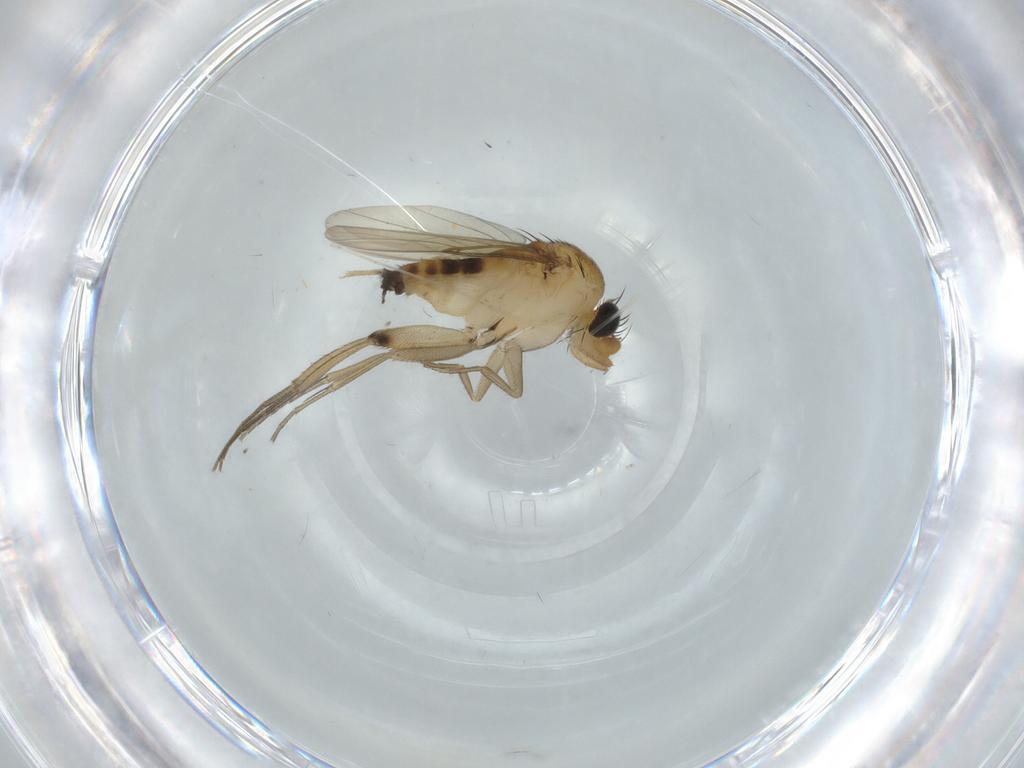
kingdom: Animalia
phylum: Arthropoda
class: Insecta
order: Diptera
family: Phoridae
